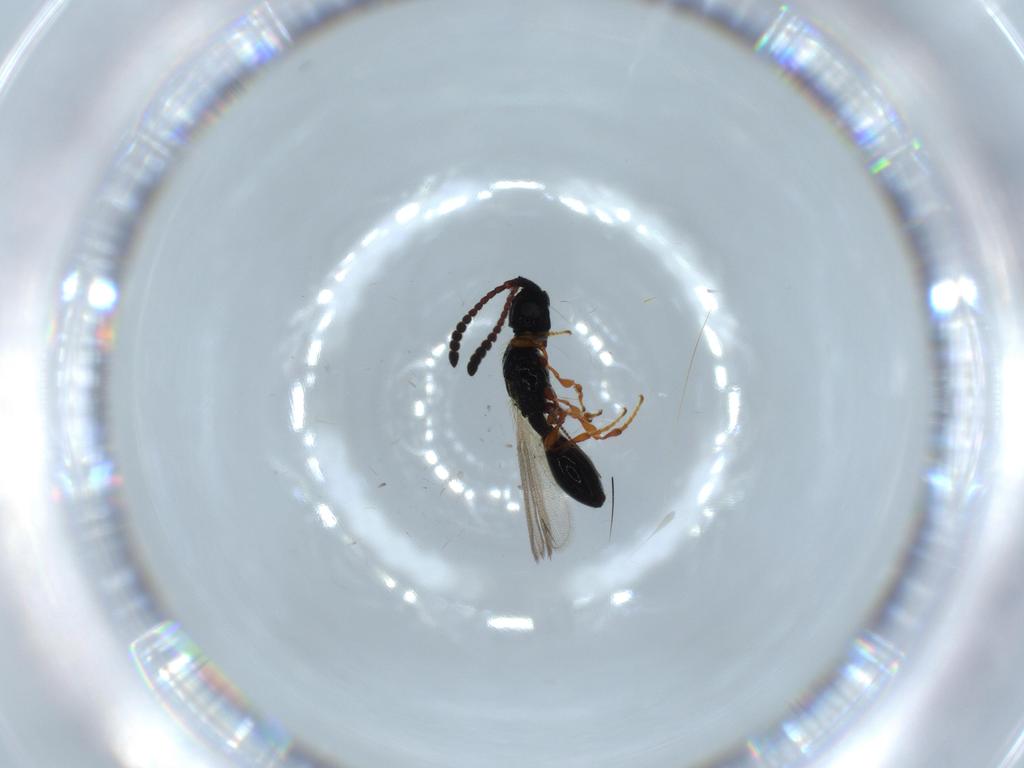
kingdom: Animalia
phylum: Arthropoda
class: Insecta
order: Hymenoptera
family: Diapriidae
